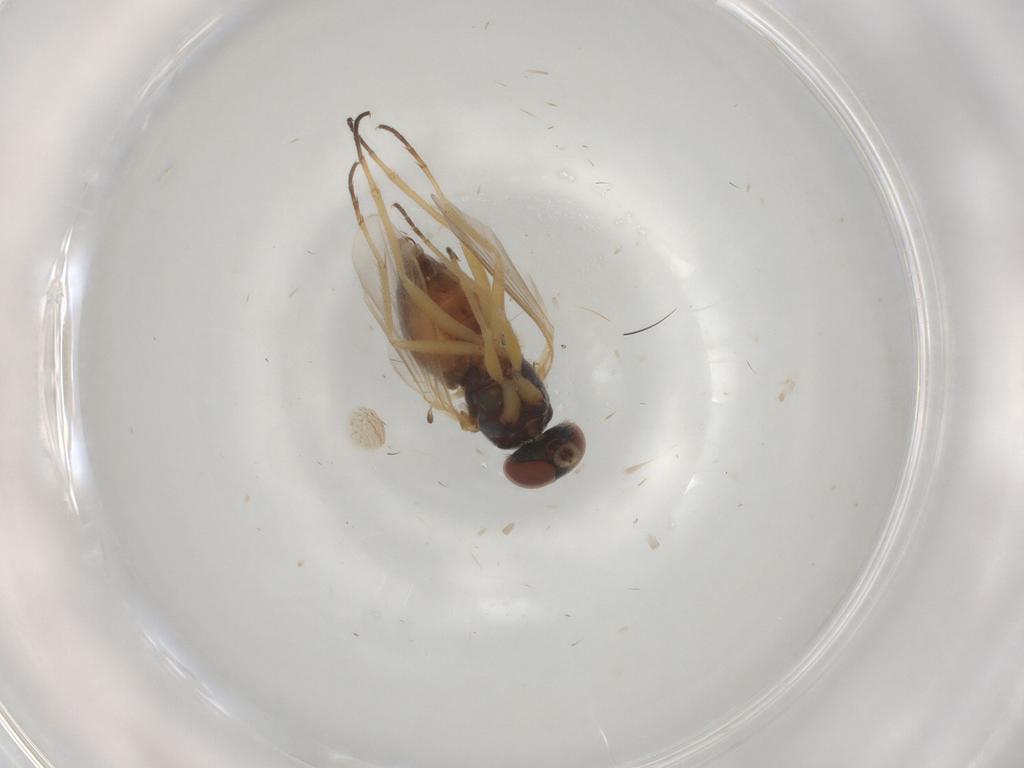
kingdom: Animalia
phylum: Arthropoda
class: Insecta
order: Diptera
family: Dolichopodidae
